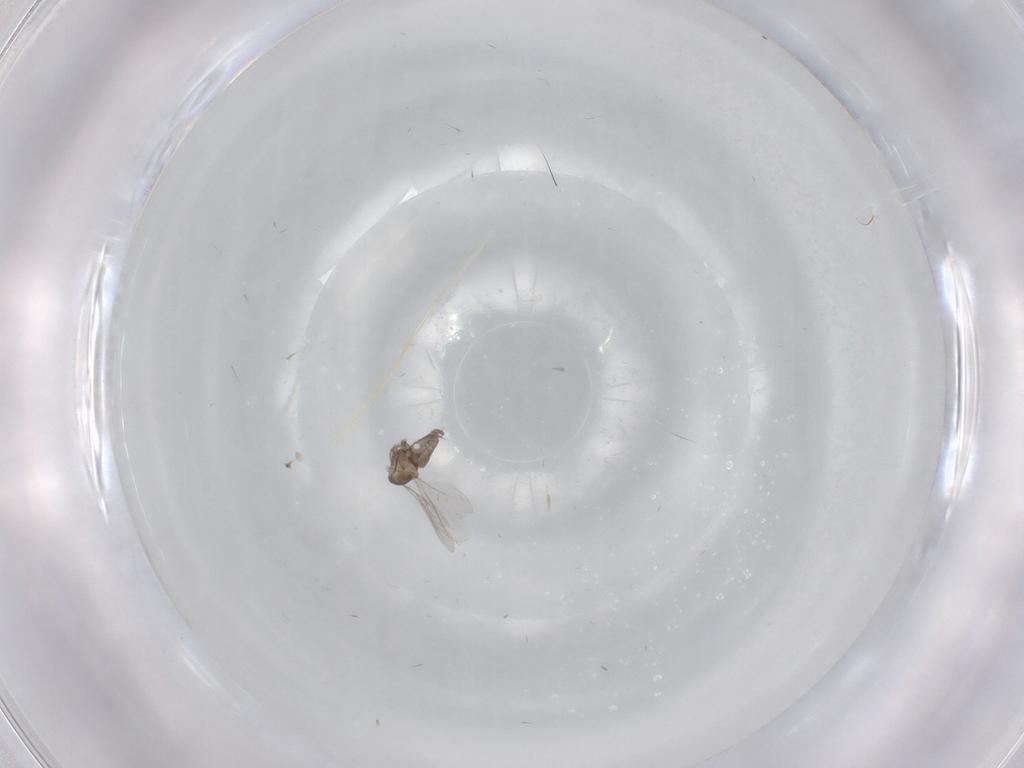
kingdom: Animalia
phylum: Arthropoda
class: Insecta
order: Diptera
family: Cecidomyiidae
